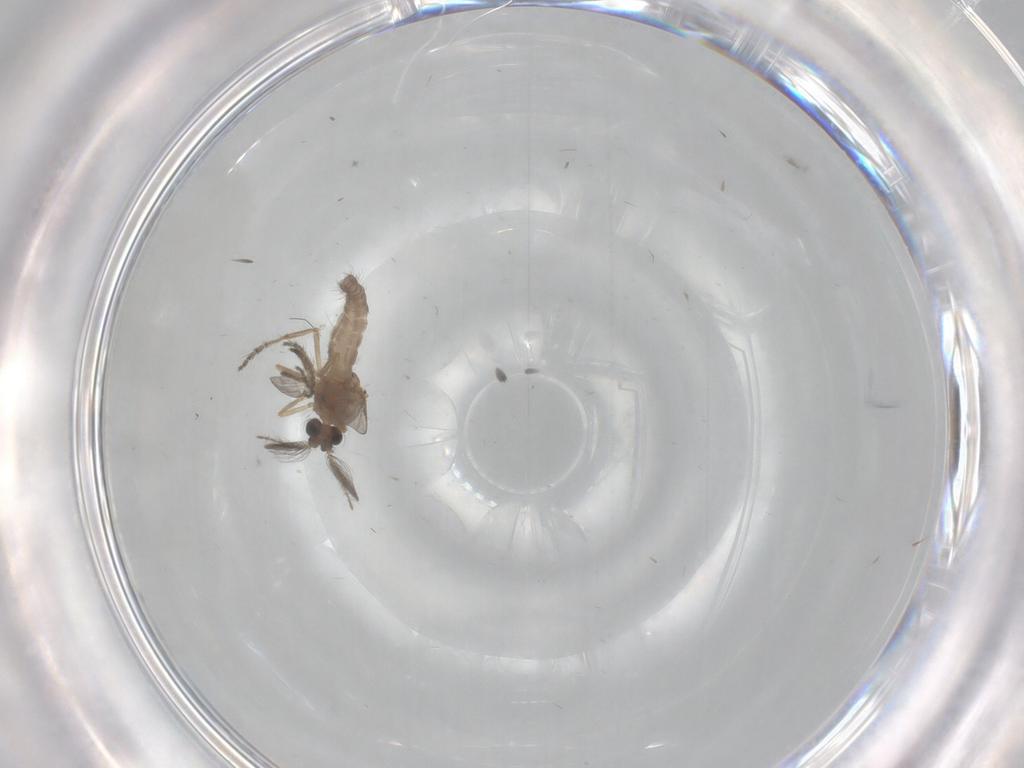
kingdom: Animalia
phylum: Arthropoda
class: Insecta
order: Diptera
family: Ceratopogonidae
